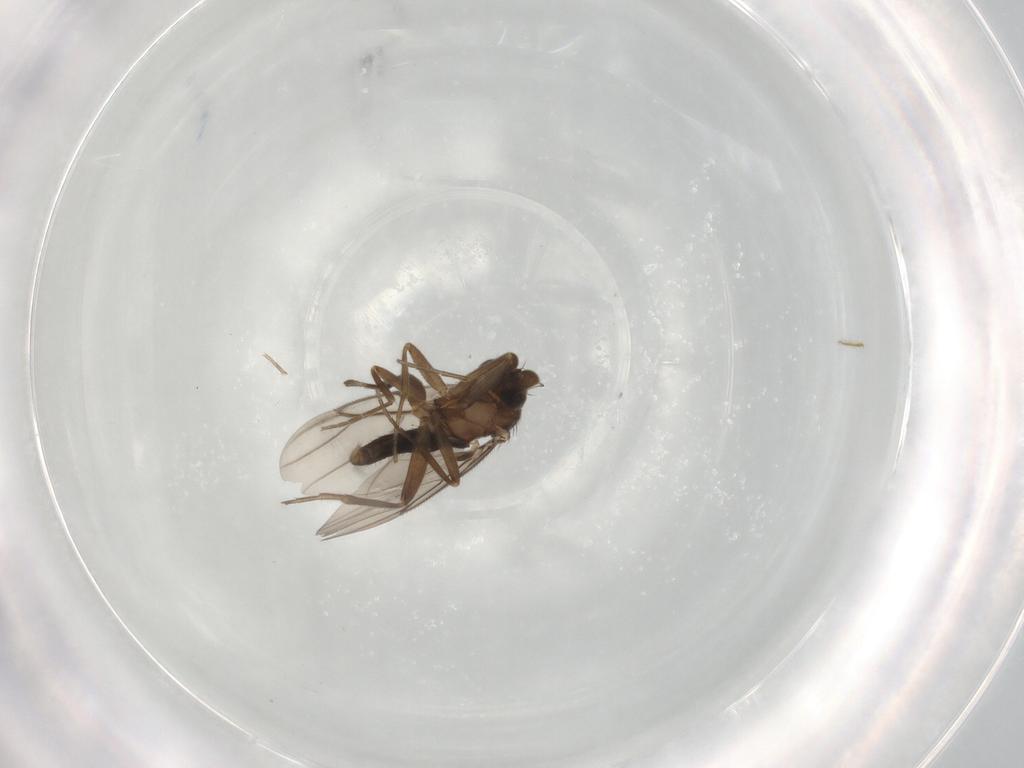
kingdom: Animalia
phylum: Arthropoda
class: Insecta
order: Diptera
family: Phoridae
